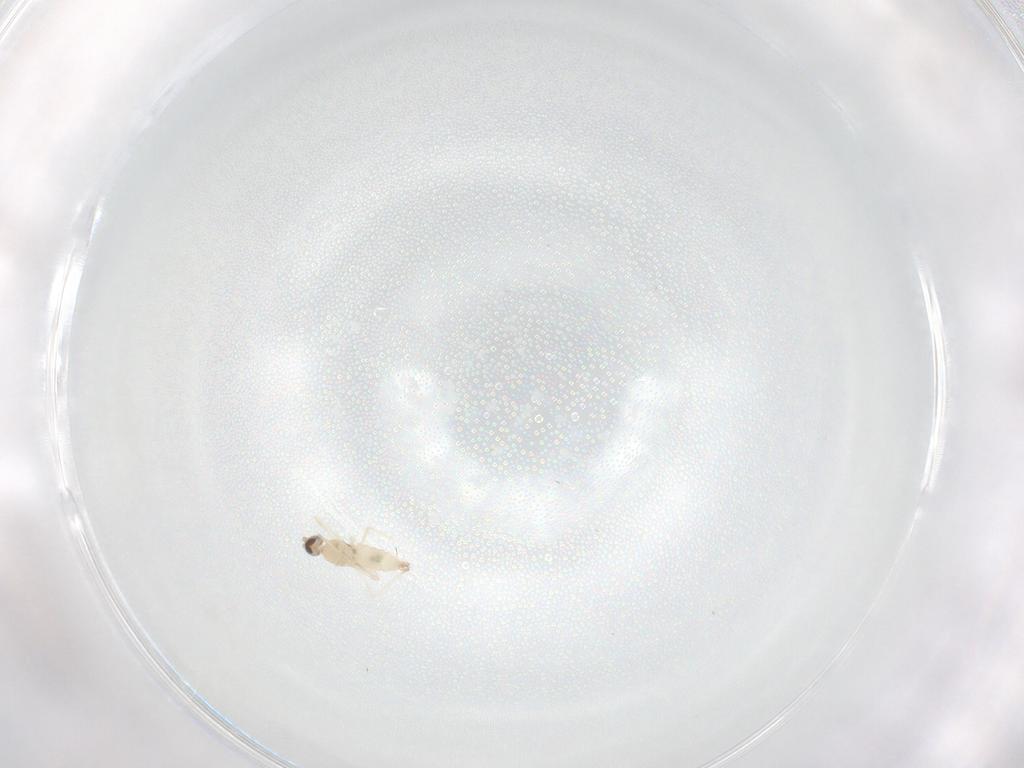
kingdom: Animalia
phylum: Arthropoda
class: Insecta
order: Diptera
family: Cecidomyiidae
